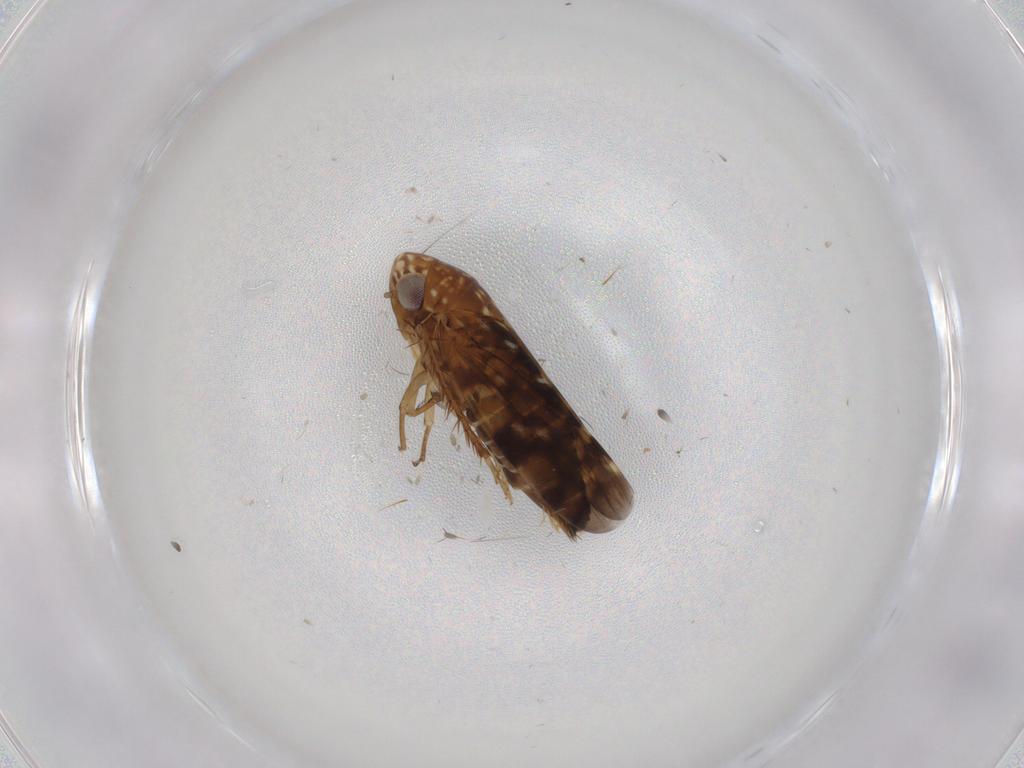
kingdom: Animalia
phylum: Arthropoda
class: Insecta
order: Hemiptera
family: Cicadellidae
